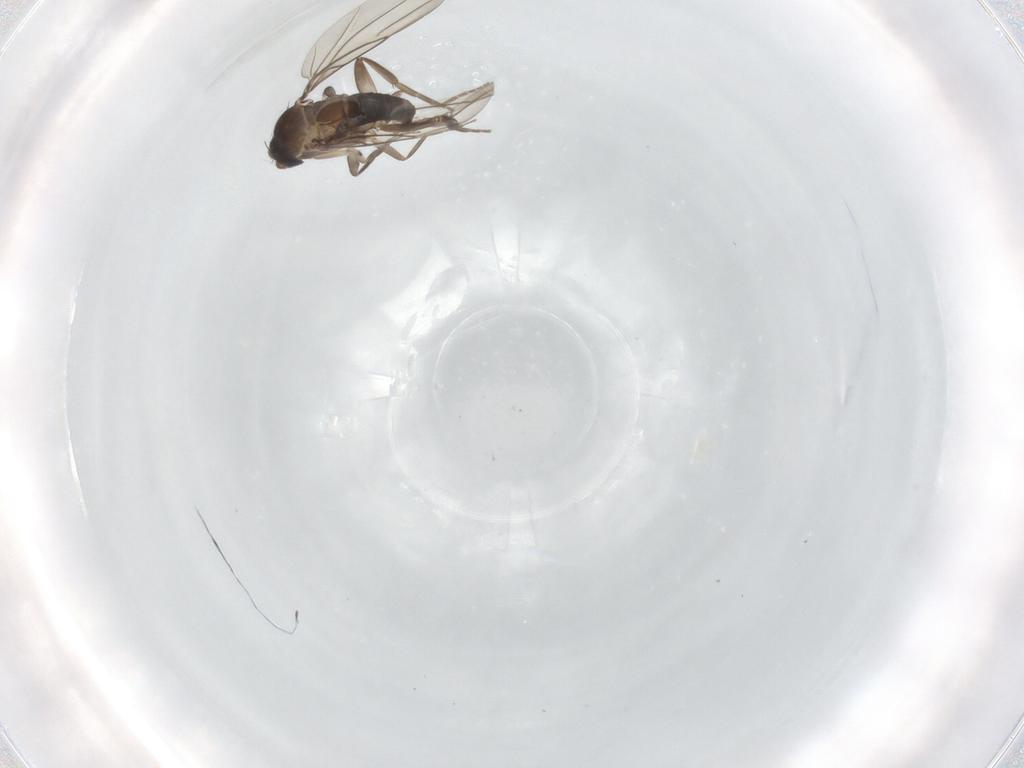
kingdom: Animalia
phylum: Arthropoda
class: Insecta
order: Diptera
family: Phoridae
